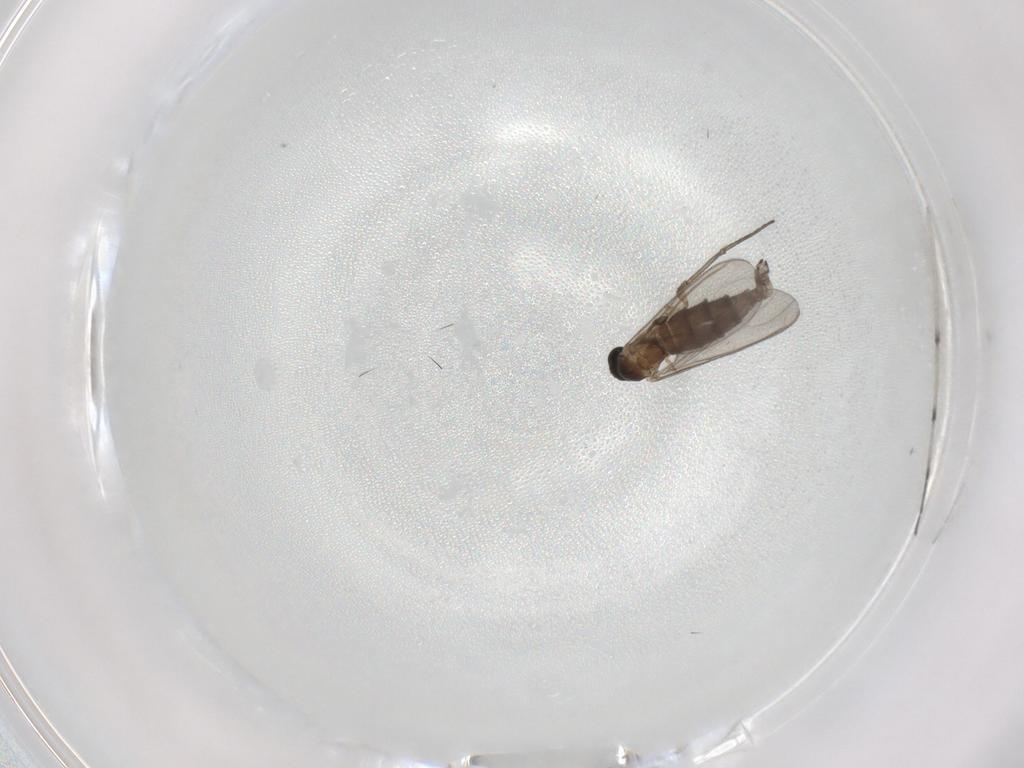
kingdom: Animalia
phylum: Arthropoda
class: Insecta
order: Diptera
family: Sciaridae
